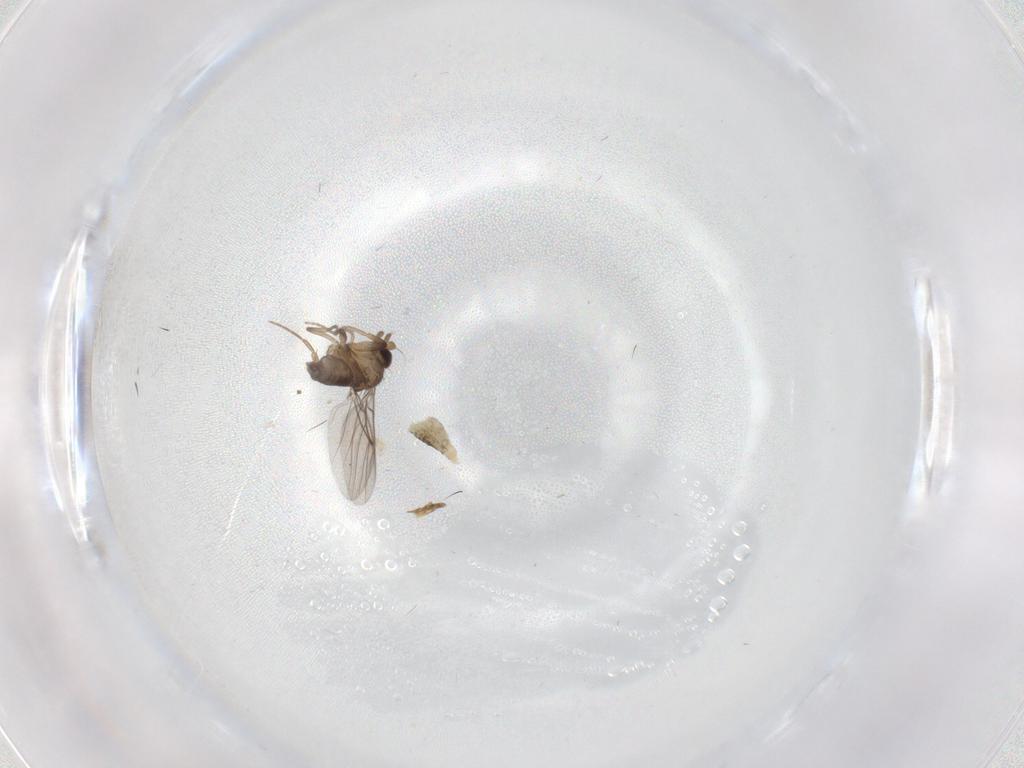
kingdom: Animalia
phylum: Arthropoda
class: Insecta
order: Diptera
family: Cecidomyiidae
